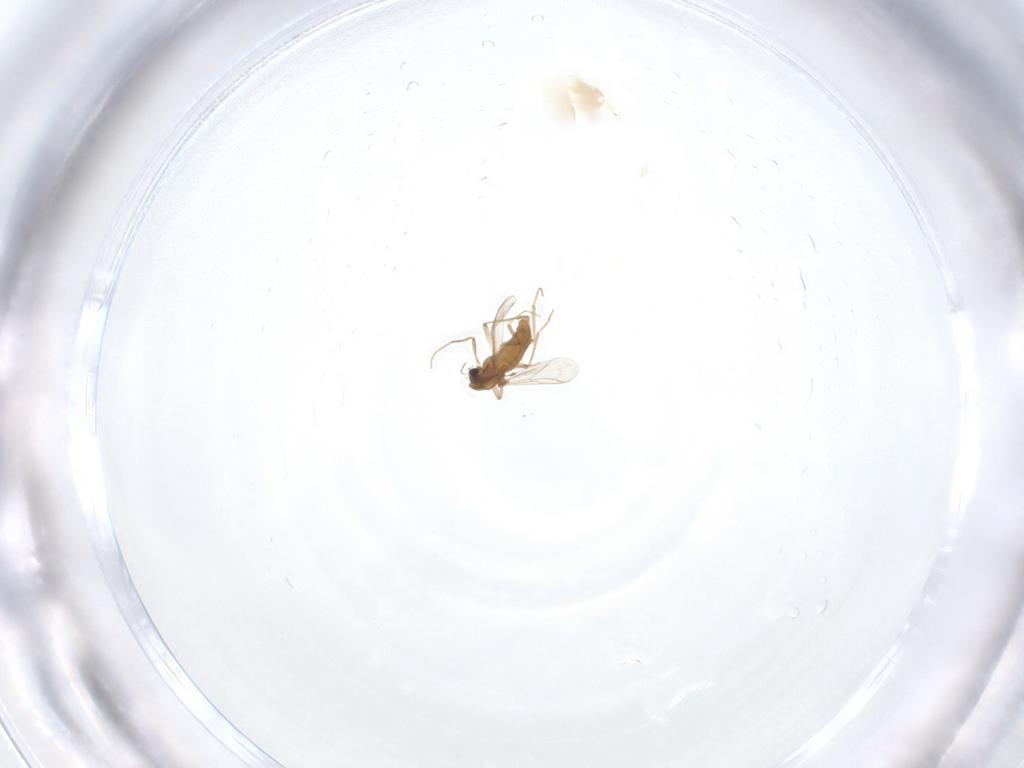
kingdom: Animalia
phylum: Arthropoda
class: Insecta
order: Diptera
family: Chironomidae
